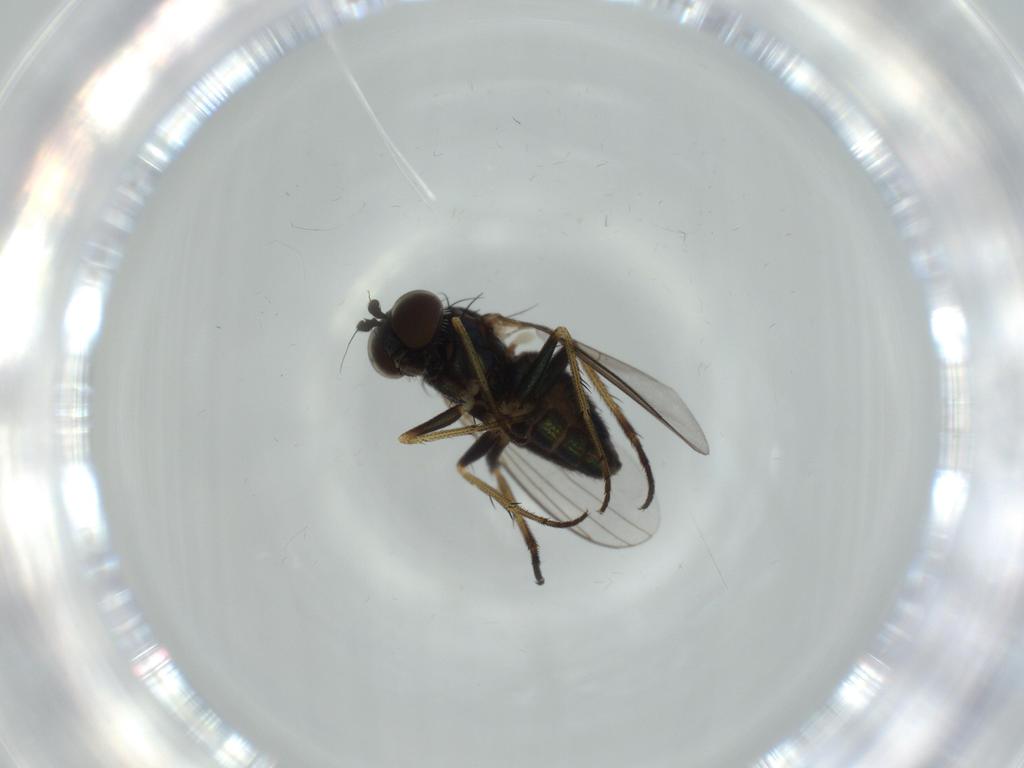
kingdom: Animalia
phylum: Arthropoda
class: Insecta
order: Diptera
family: Dolichopodidae
